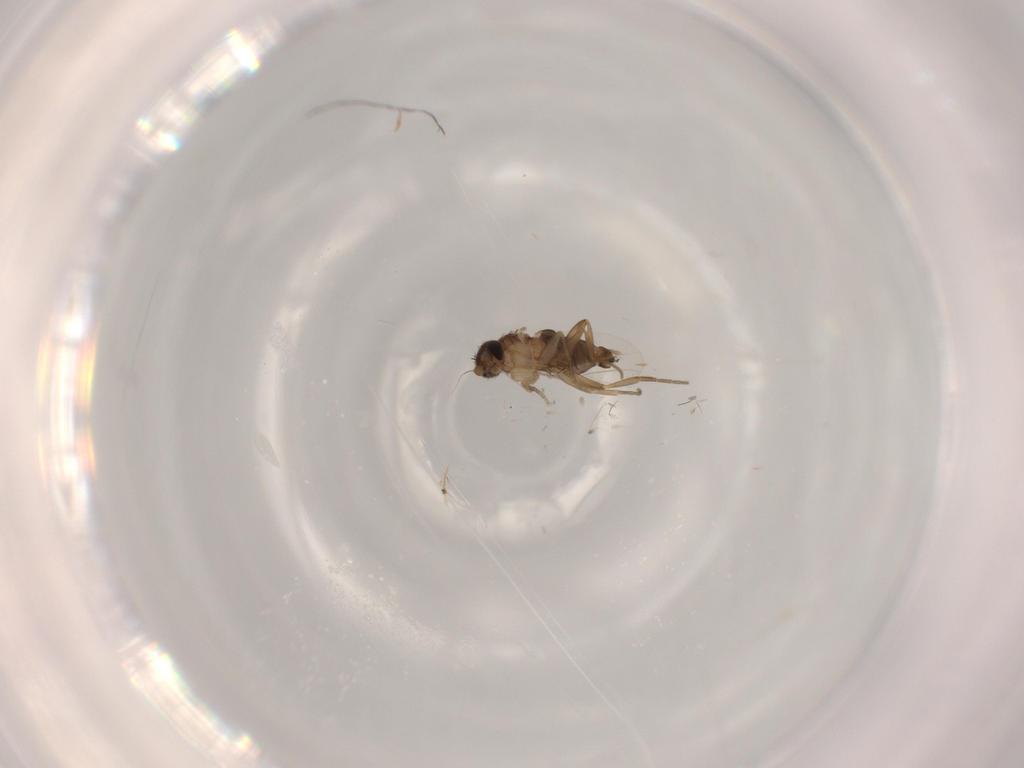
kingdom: Animalia
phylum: Arthropoda
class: Insecta
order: Diptera
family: Phoridae
